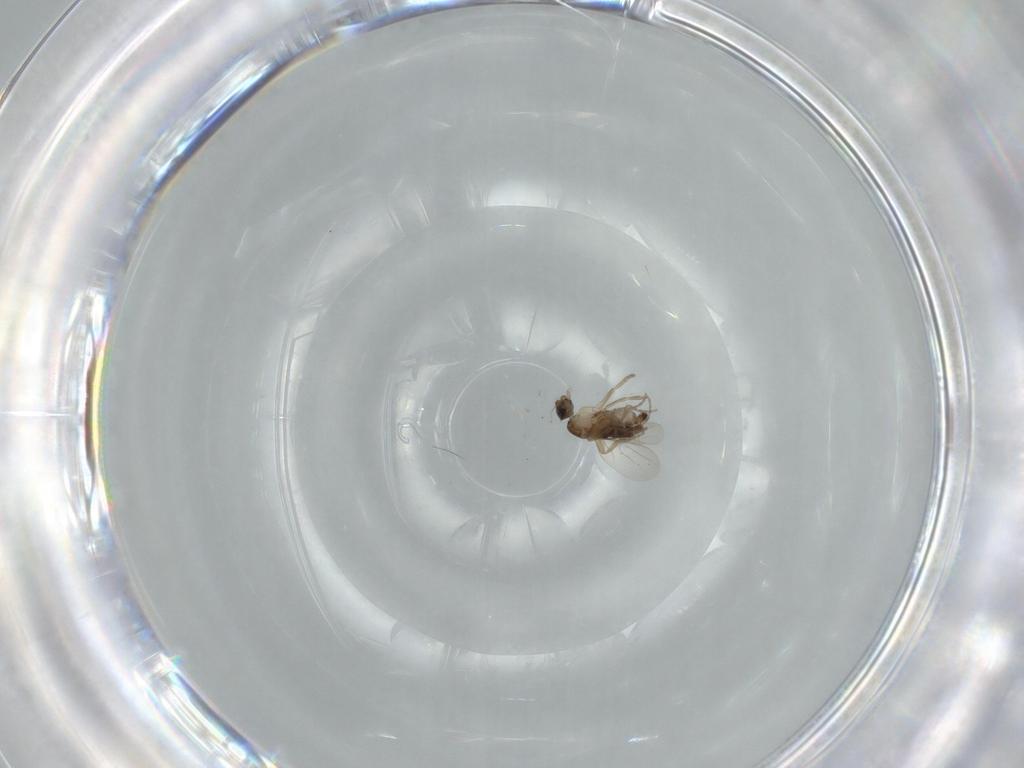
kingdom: Animalia
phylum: Arthropoda
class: Insecta
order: Diptera
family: Phoridae
